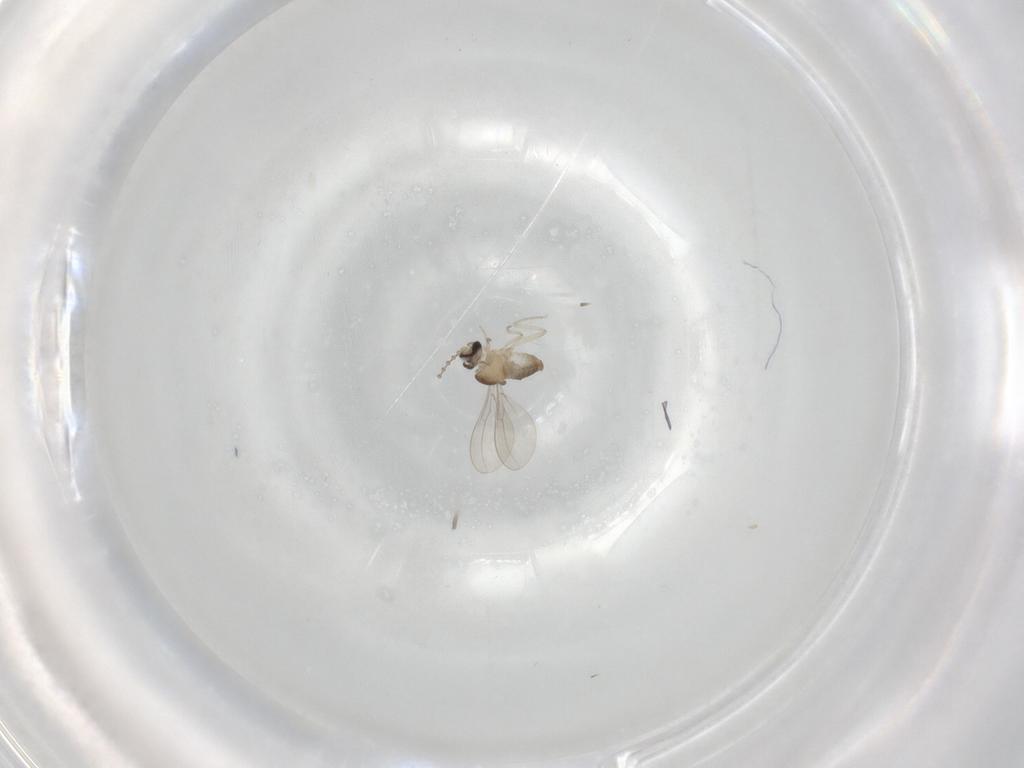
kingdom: Animalia
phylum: Arthropoda
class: Insecta
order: Diptera
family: Cecidomyiidae
